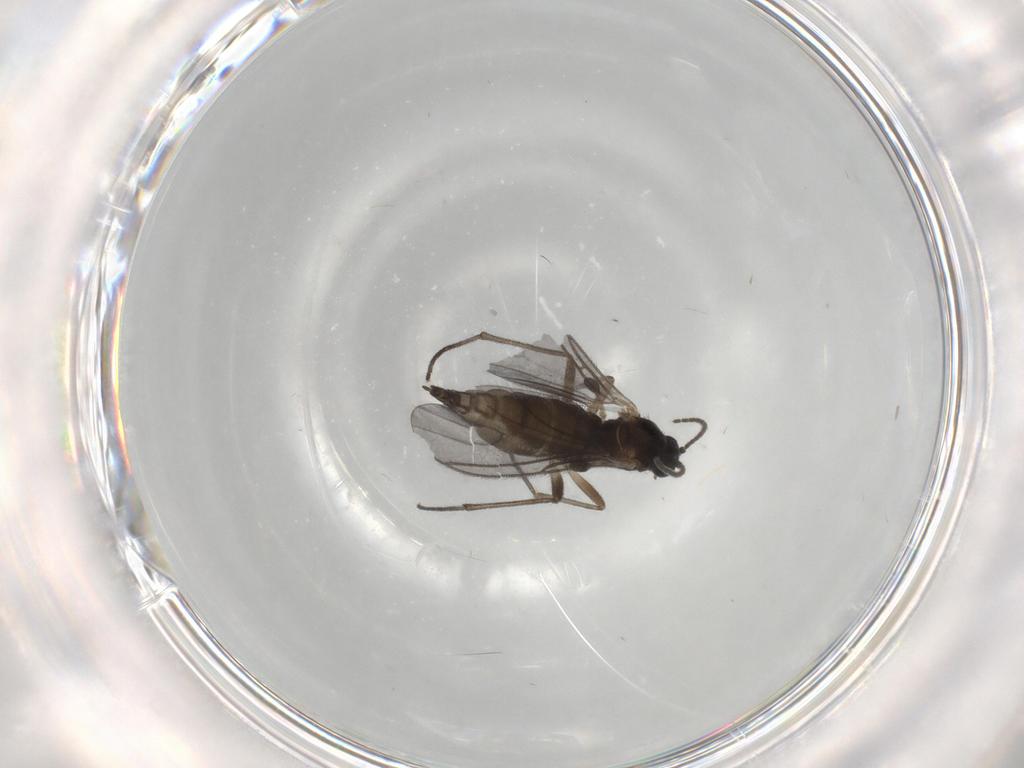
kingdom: Animalia
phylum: Arthropoda
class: Insecta
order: Diptera
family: Sciaridae
